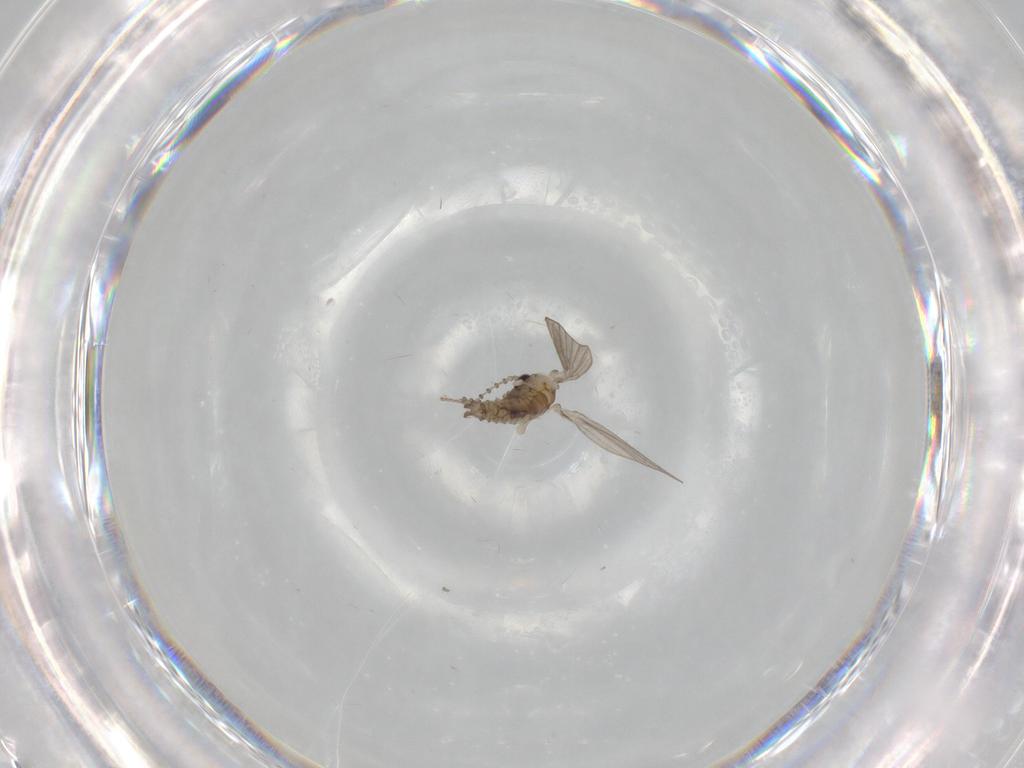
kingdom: Animalia
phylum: Arthropoda
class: Insecta
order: Diptera
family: Psychodidae
